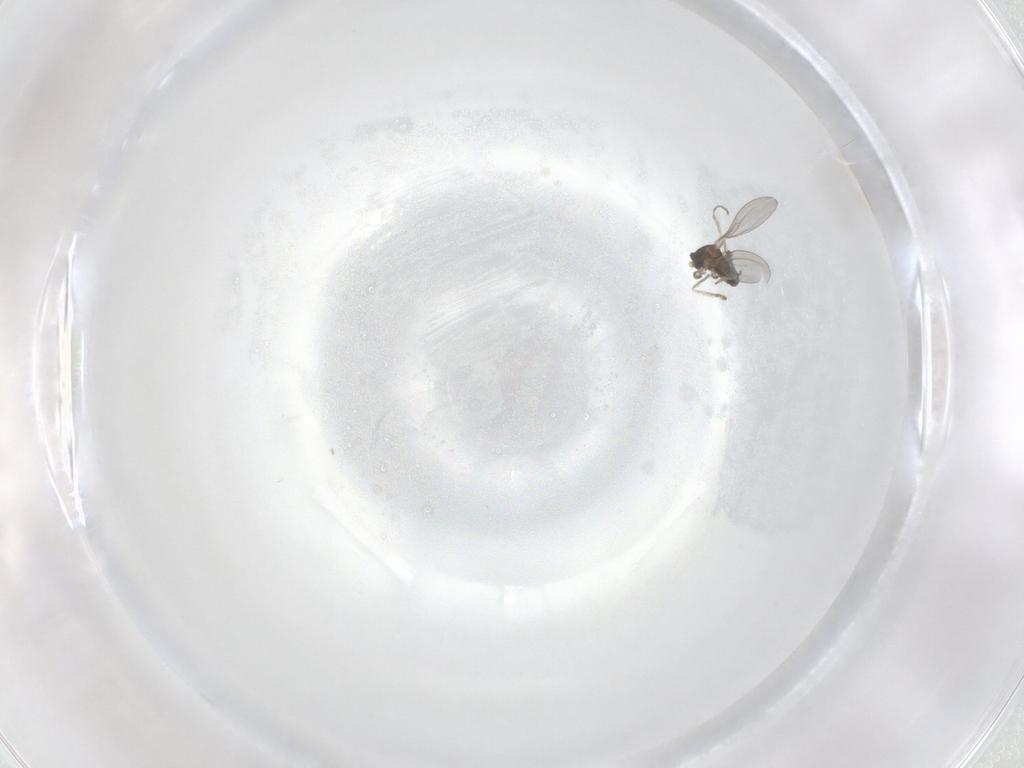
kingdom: Animalia
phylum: Arthropoda
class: Insecta
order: Diptera
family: Cecidomyiidae
